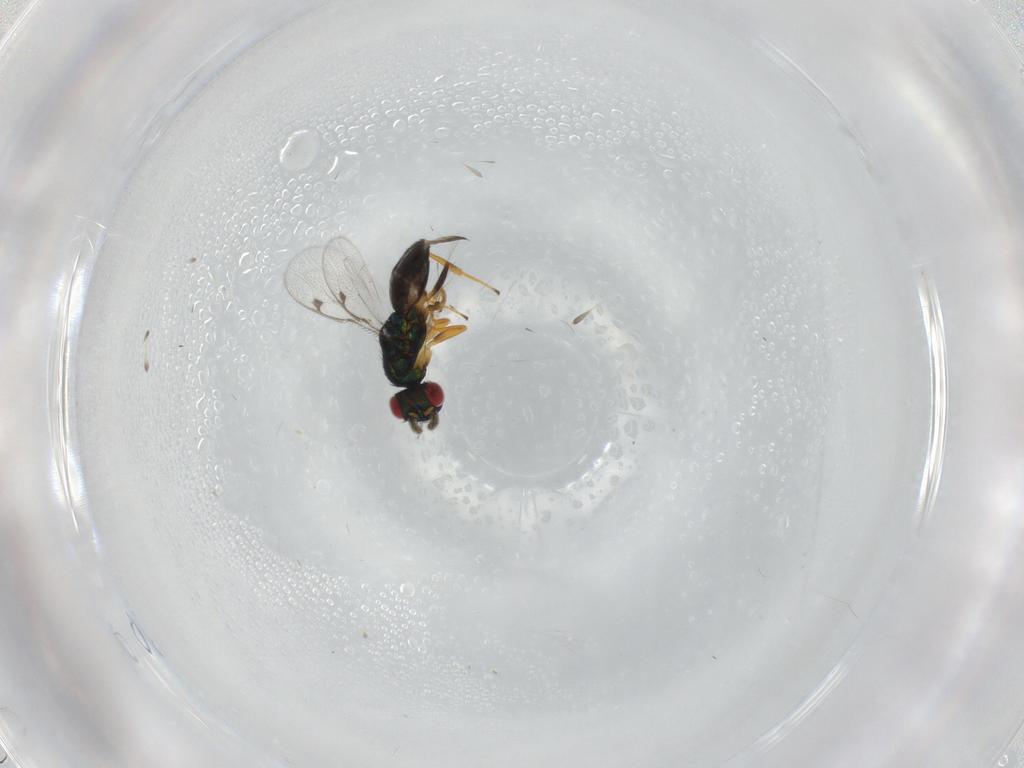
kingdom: Animalia
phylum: Arthropoda
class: Insecta
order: Hymenoptera
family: Pteromalidae
